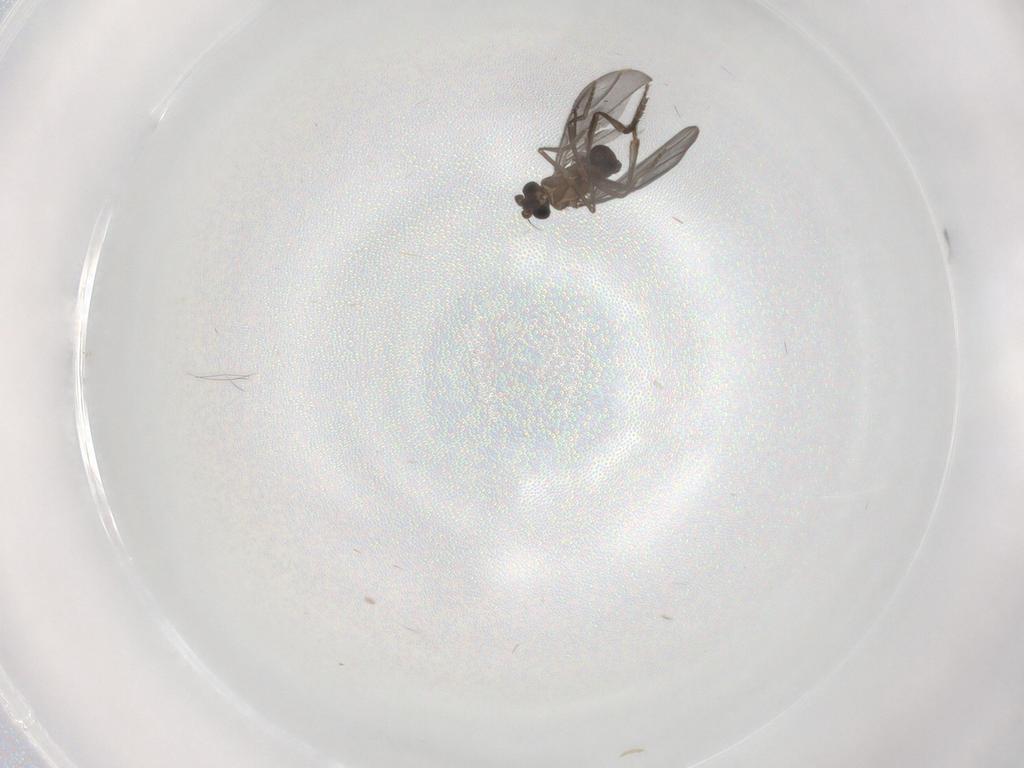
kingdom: Animalia
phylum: Arthropoda
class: Insecta
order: Diptera
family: Phoridae
